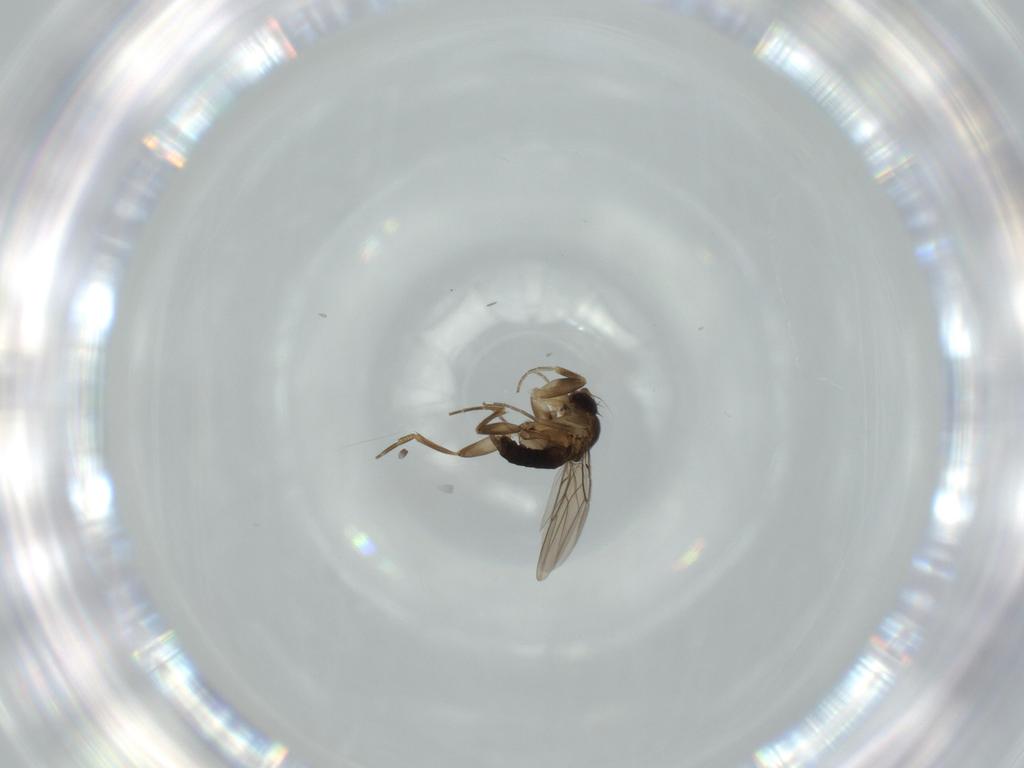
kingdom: Animalia
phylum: Arthropoda
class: Insecta
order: Diptera
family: Phoridae
